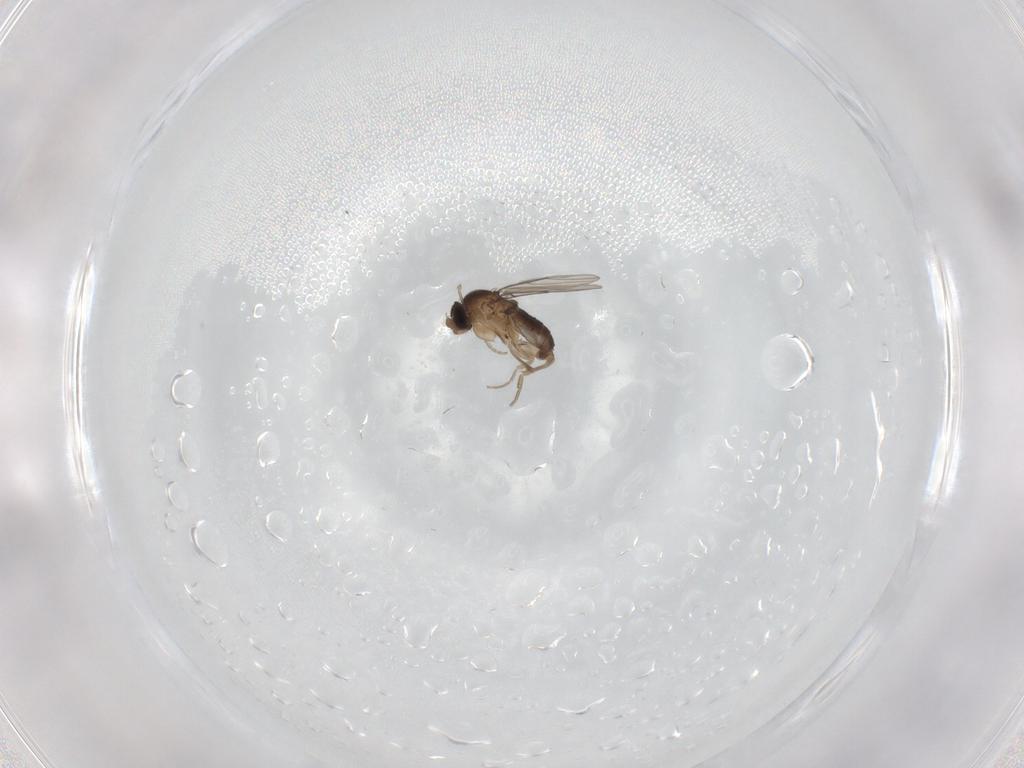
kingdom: Animalia
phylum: Arthropoda
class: Insecta
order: Diptera
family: Phoridae
